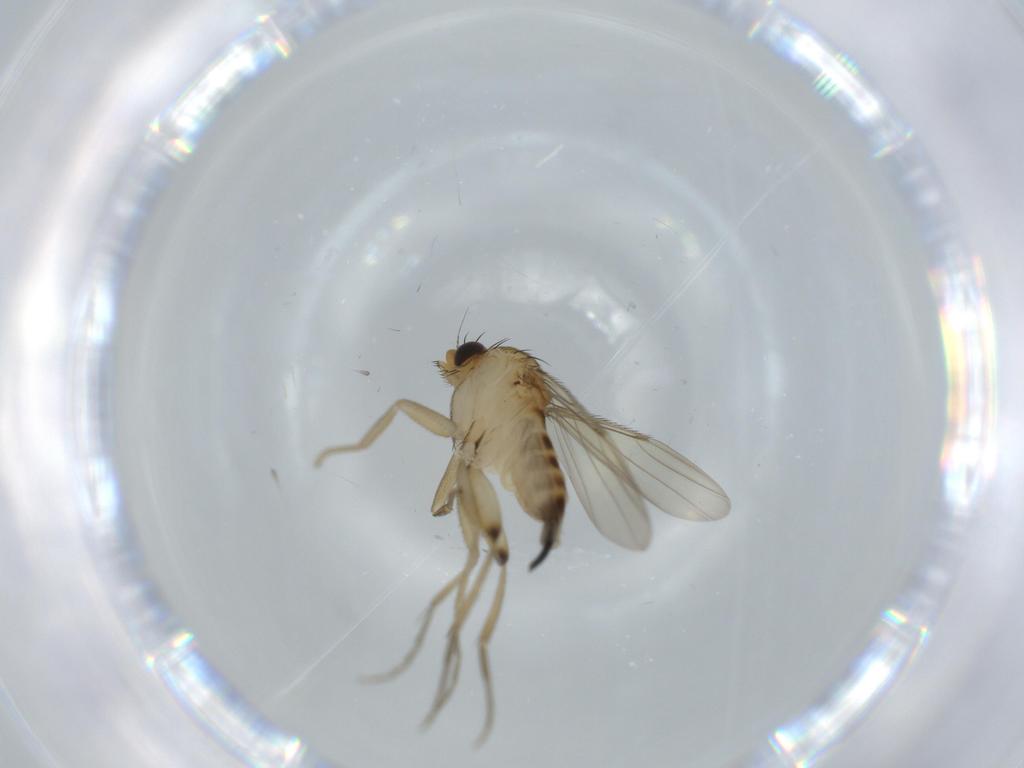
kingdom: Animalia
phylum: Arthropoda
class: Insecta
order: Diptera
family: Phoridae
